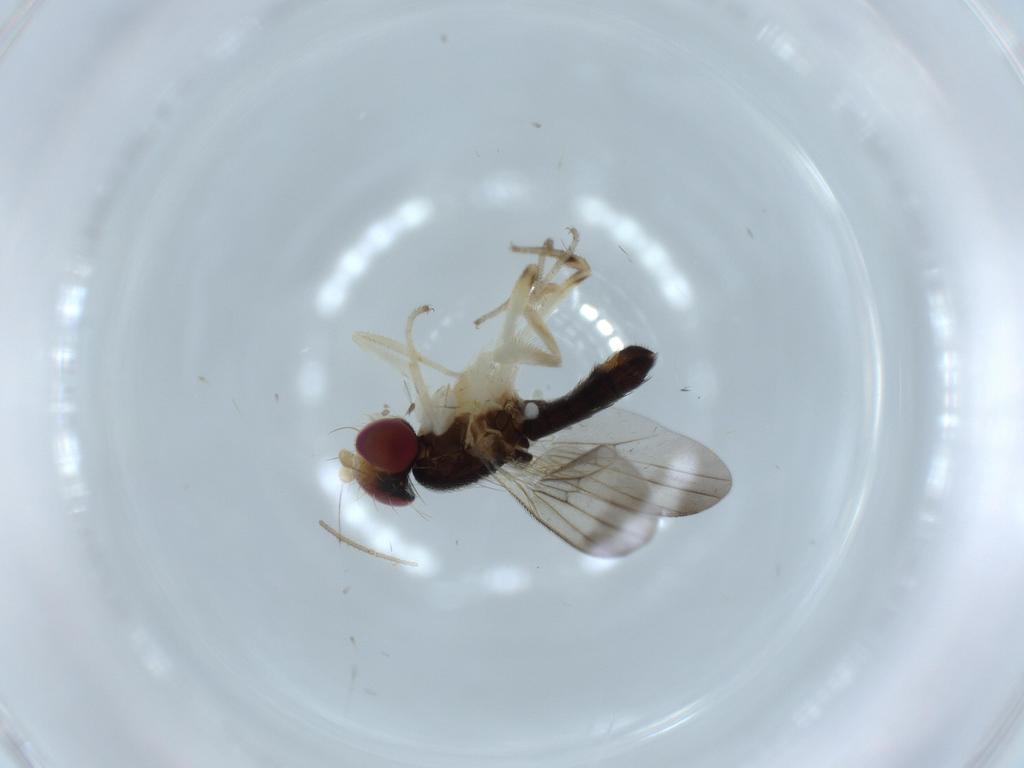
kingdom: Animalia
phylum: Arthropoda
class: Insecta
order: Diptera
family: Clusiidae
